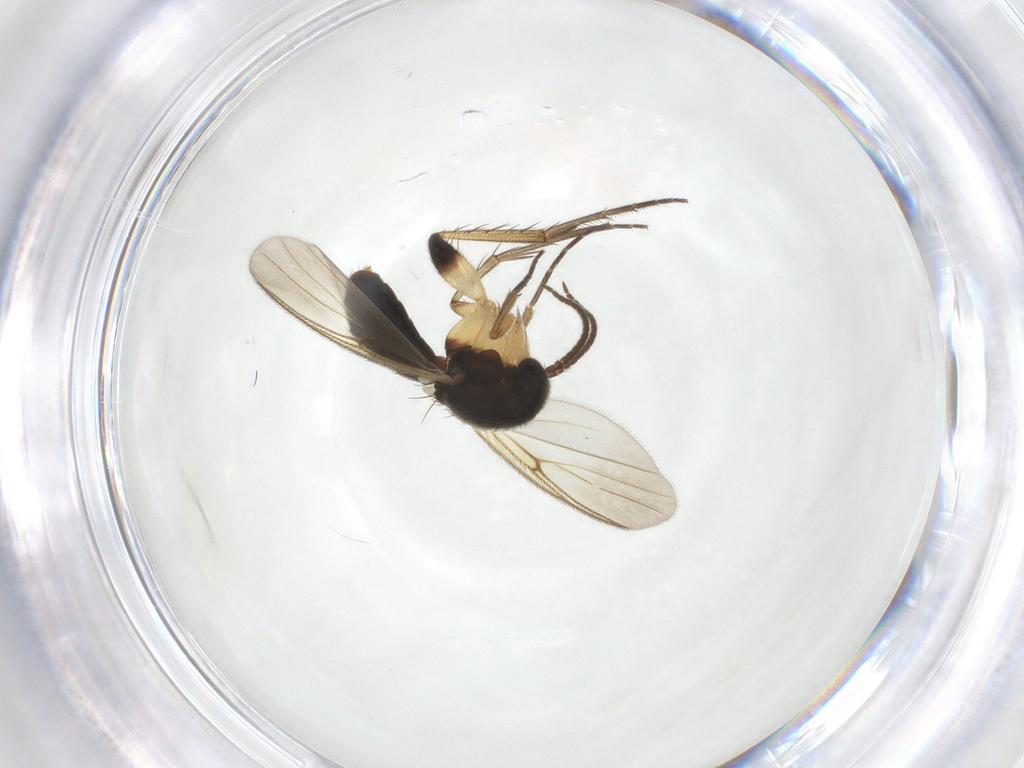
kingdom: Animalia
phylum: Arthropoda
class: Insecta
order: Diptera
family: Mycetophilidae
